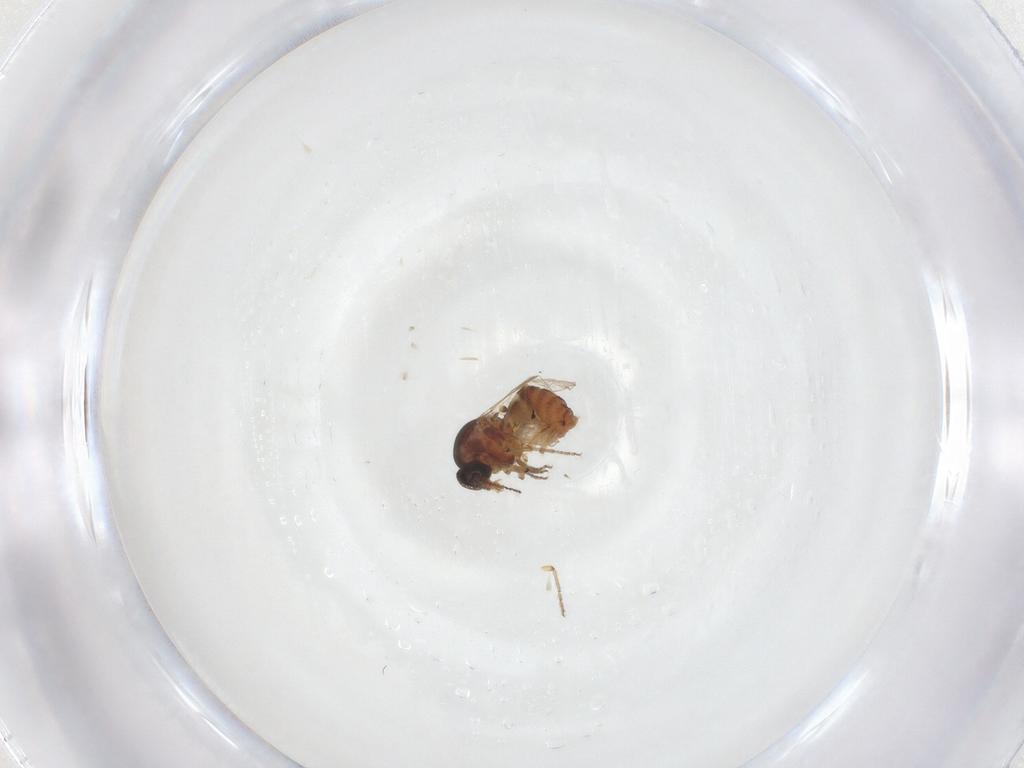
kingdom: Animalia
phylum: Arthropoda
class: Insecta
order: Diptera
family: Ceratopogonidae
